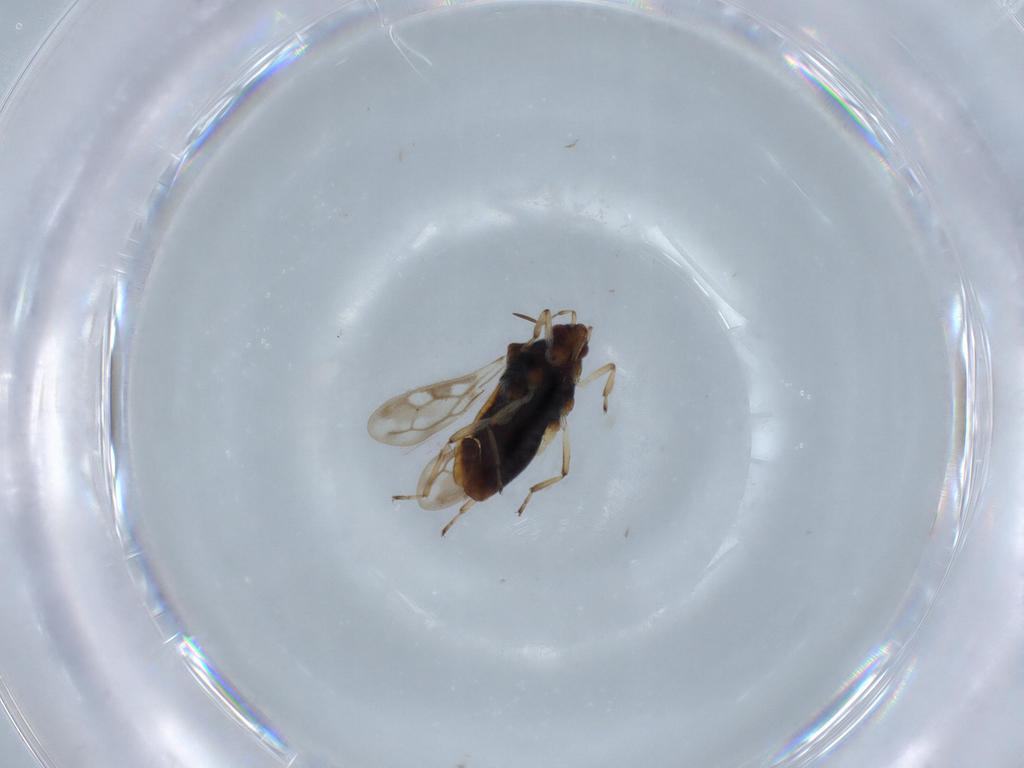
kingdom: Animalia
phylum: Arthropoda
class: Insecta
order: Hemiptera
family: Veliidae
